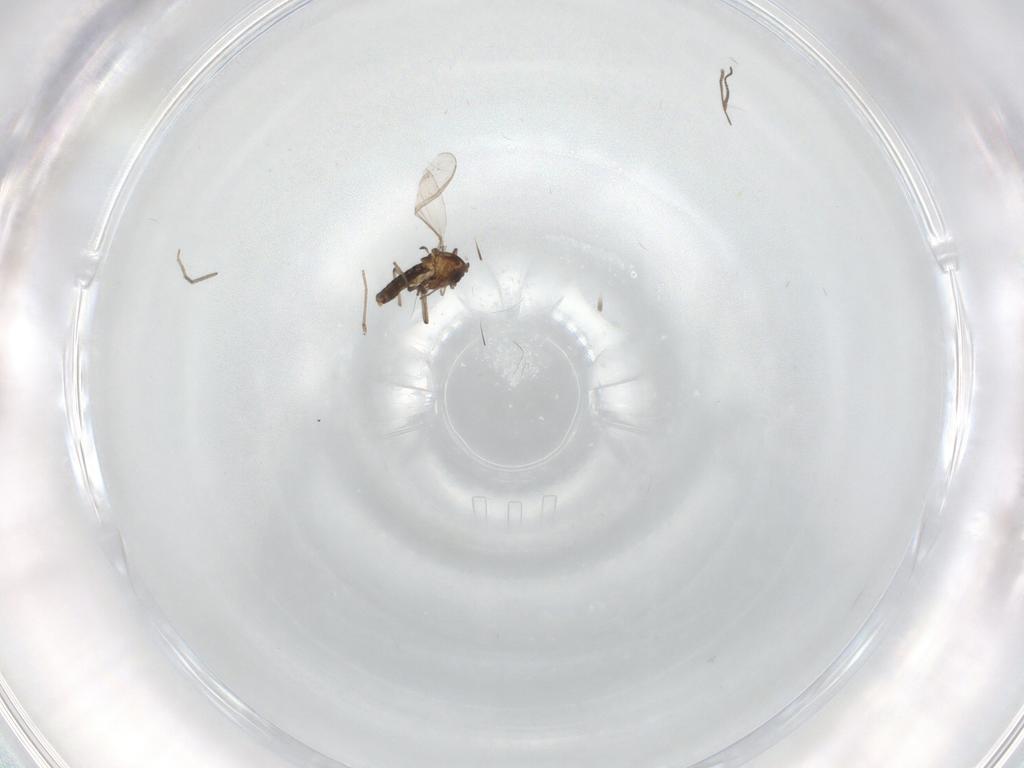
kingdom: Animalia
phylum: Arthropoda
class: Insecta
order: Diptera
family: Chironomidae
